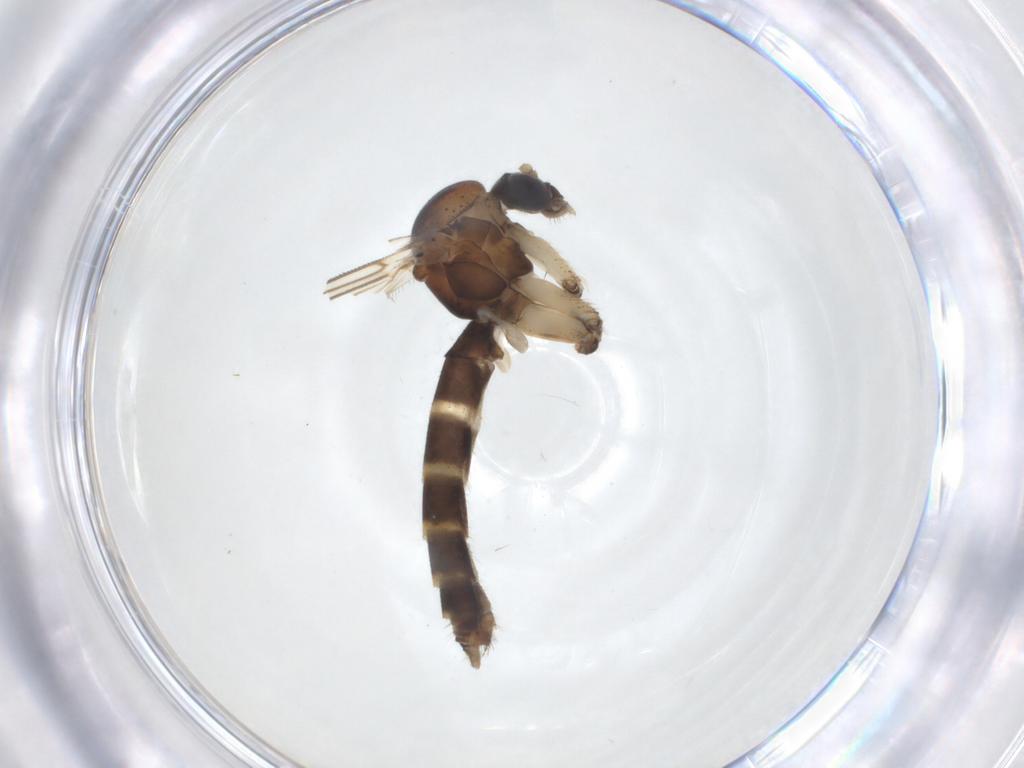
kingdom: Animalia
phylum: Arthropoda
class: Insecta
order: Diptera
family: Mycetophilidae
